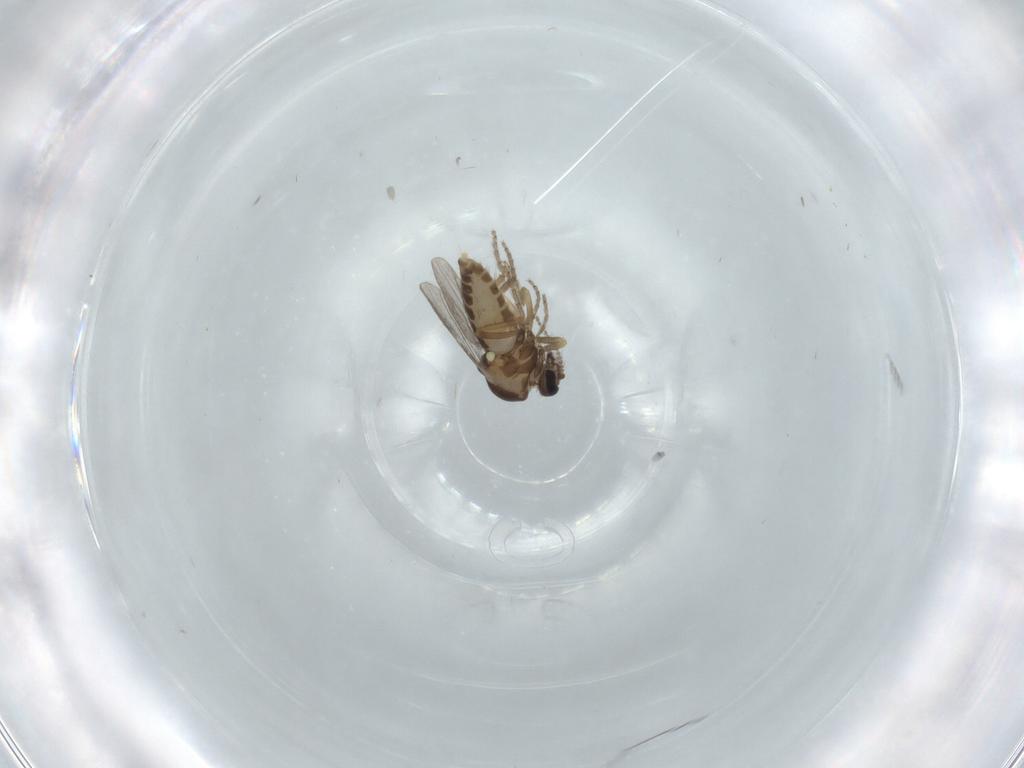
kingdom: Animalia
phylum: Arthropoda
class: Insecta
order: Diptera
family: Ceratopogonidae
